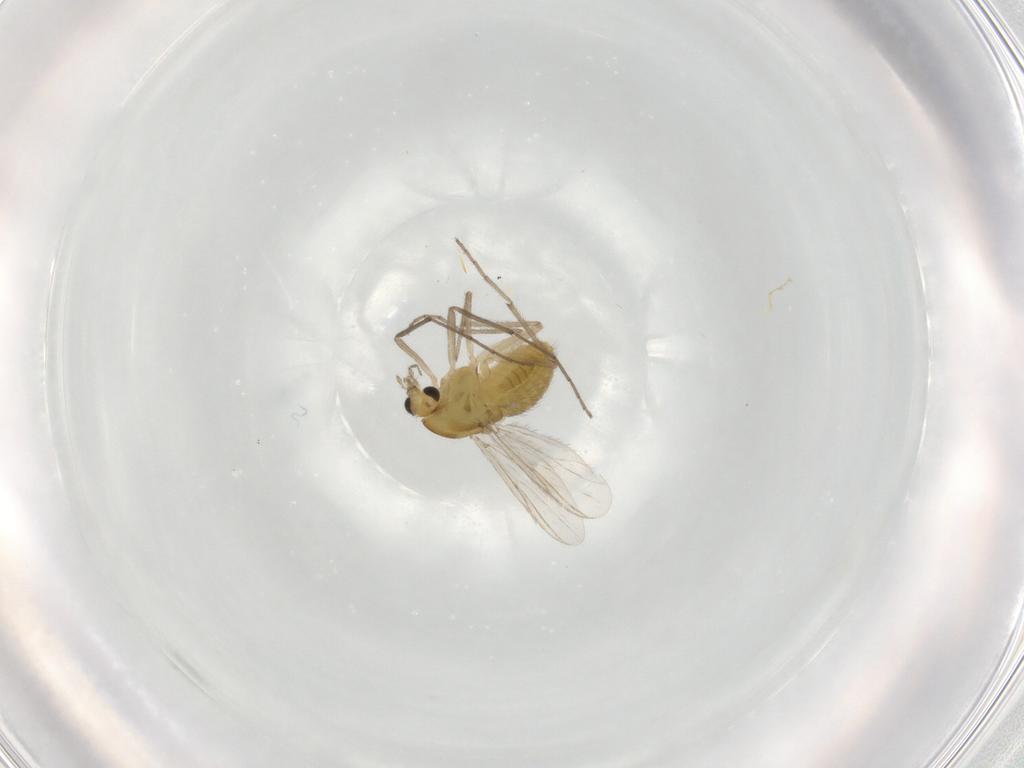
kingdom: Animalia
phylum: Arthropoda
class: Insecta
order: Diptera
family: Chironomidae
